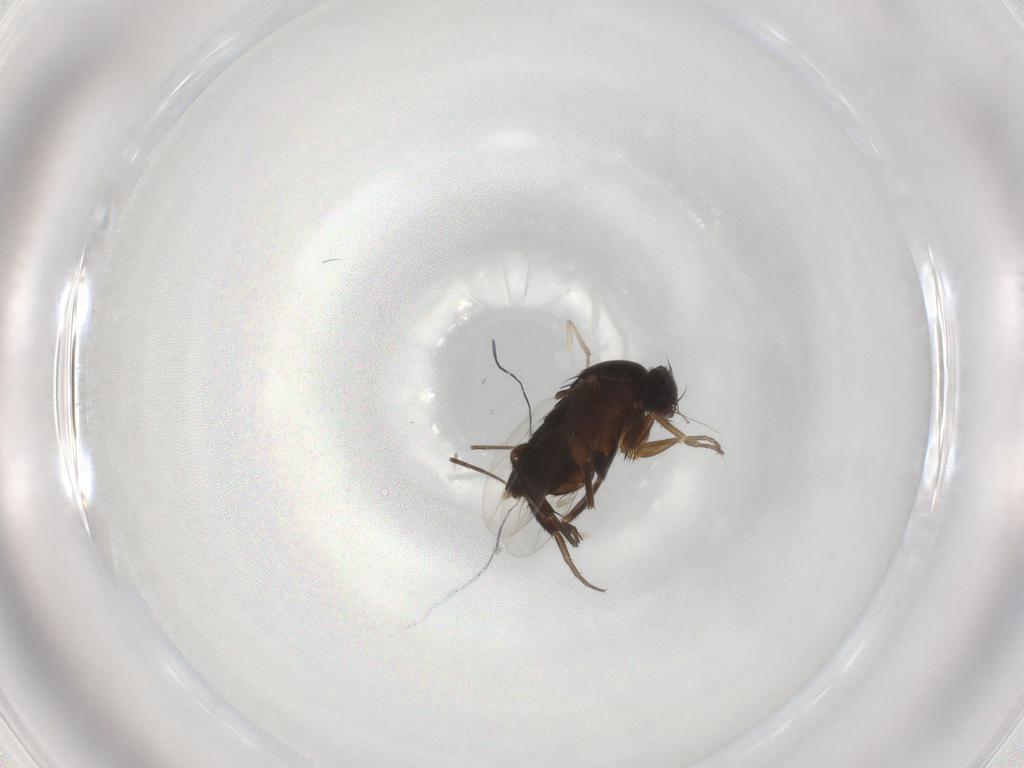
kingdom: Animalia
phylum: Arthropoda
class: Insecta
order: Diptera
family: Phoridae
